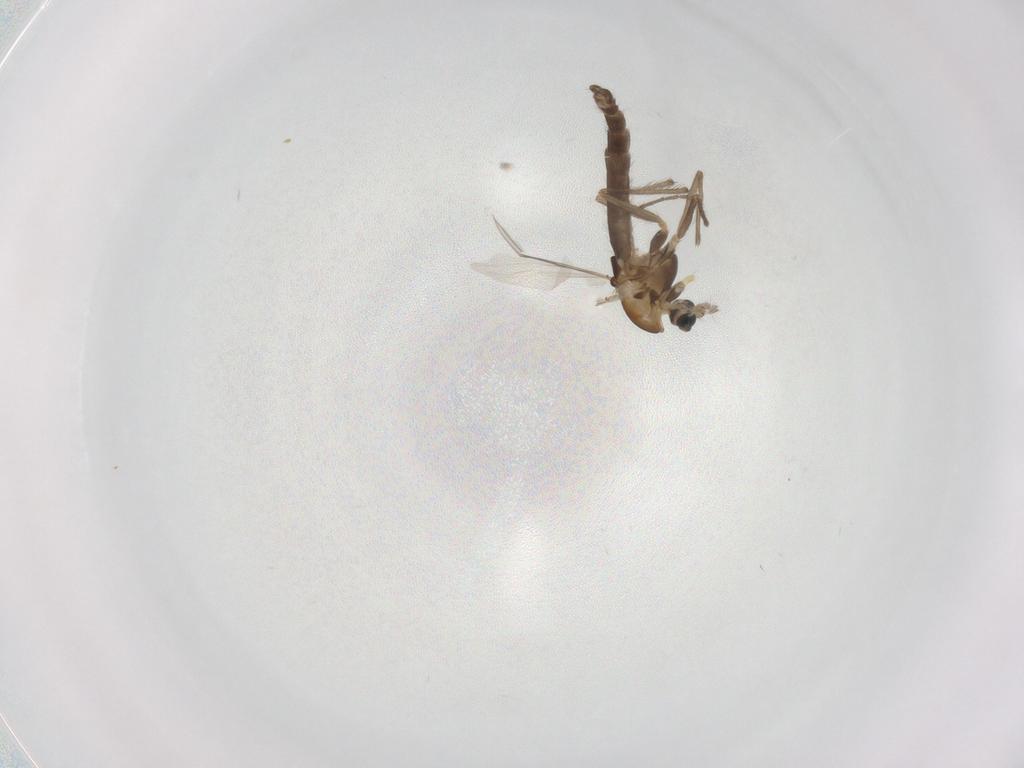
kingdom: Animalia
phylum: Arthropoda
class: Insecta
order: Diptera
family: Chironomidae
